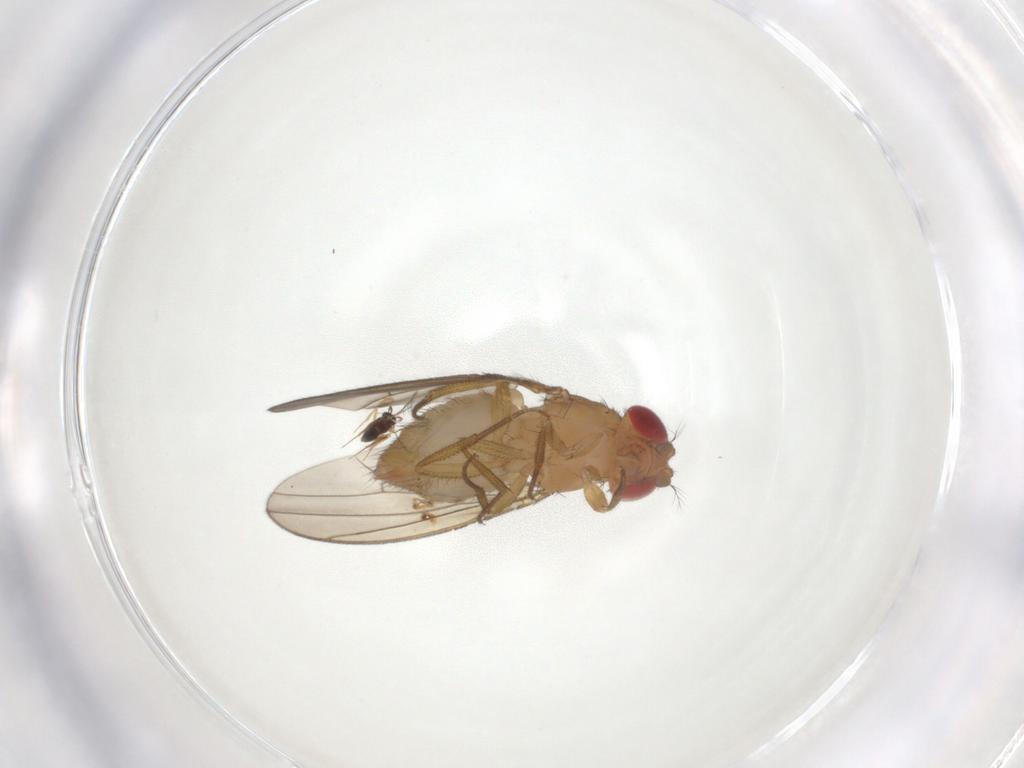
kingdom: Animalia
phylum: Arthropoda
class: Insecta
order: Diptera
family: Drosophilidae
